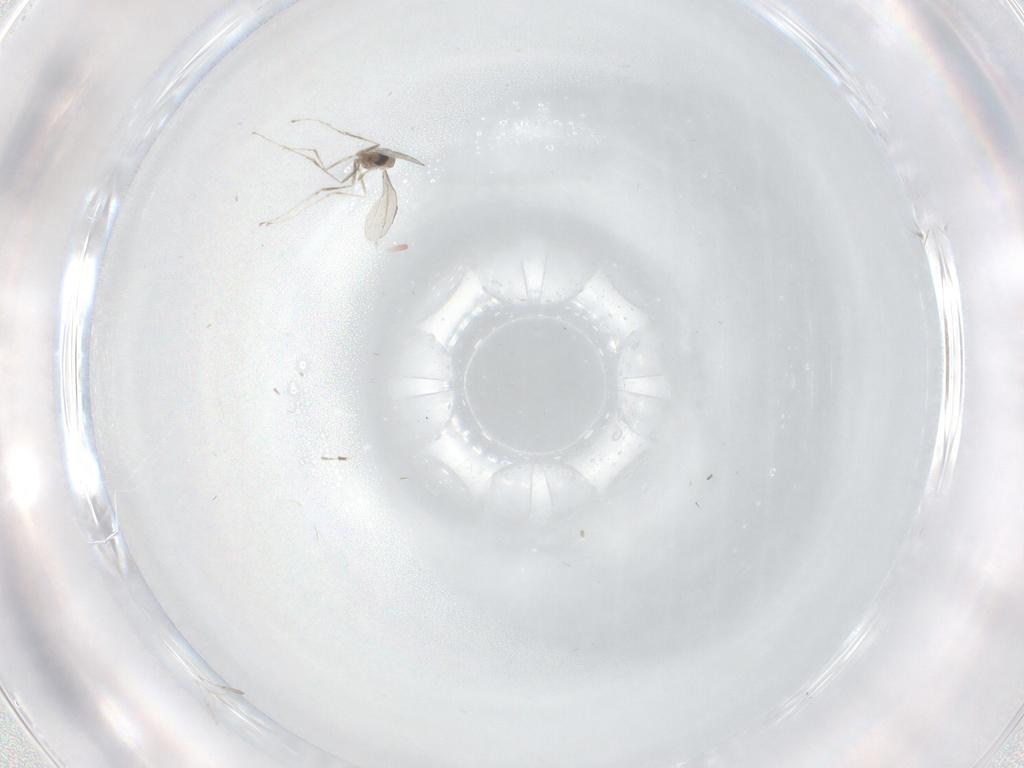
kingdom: Animalia
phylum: Arthropoda
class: Insecta
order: Diptera
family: Cecidomyiidae
